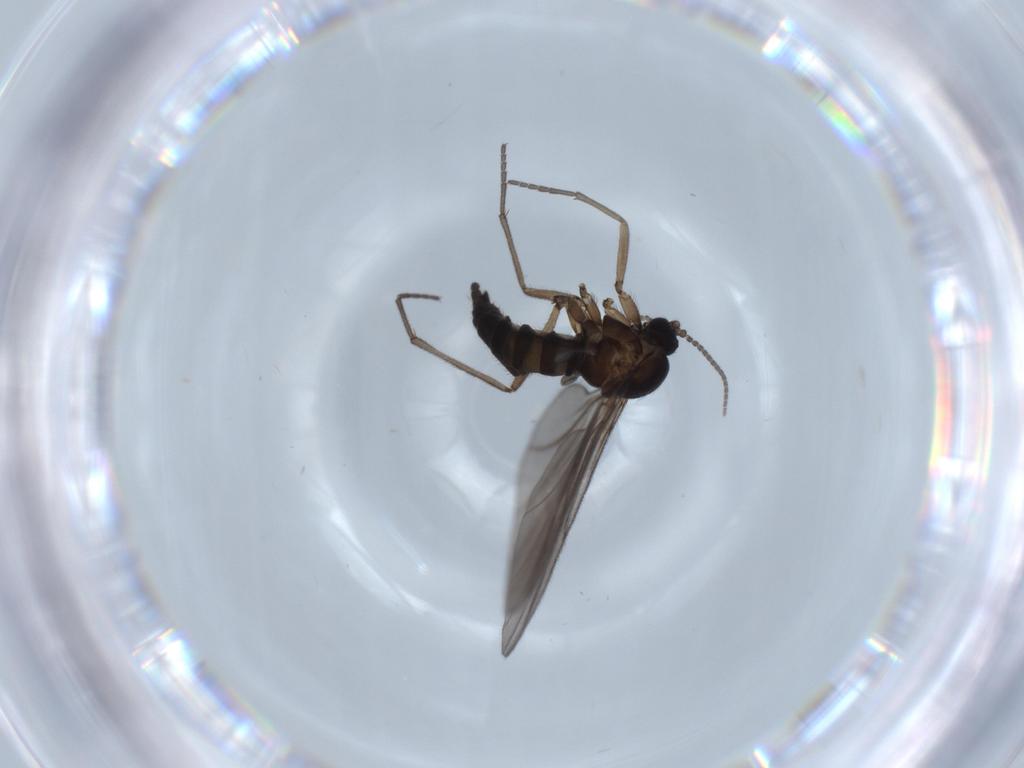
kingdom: Animalia
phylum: Arthropoda
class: Insecta
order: Diptera
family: Sciaridae
